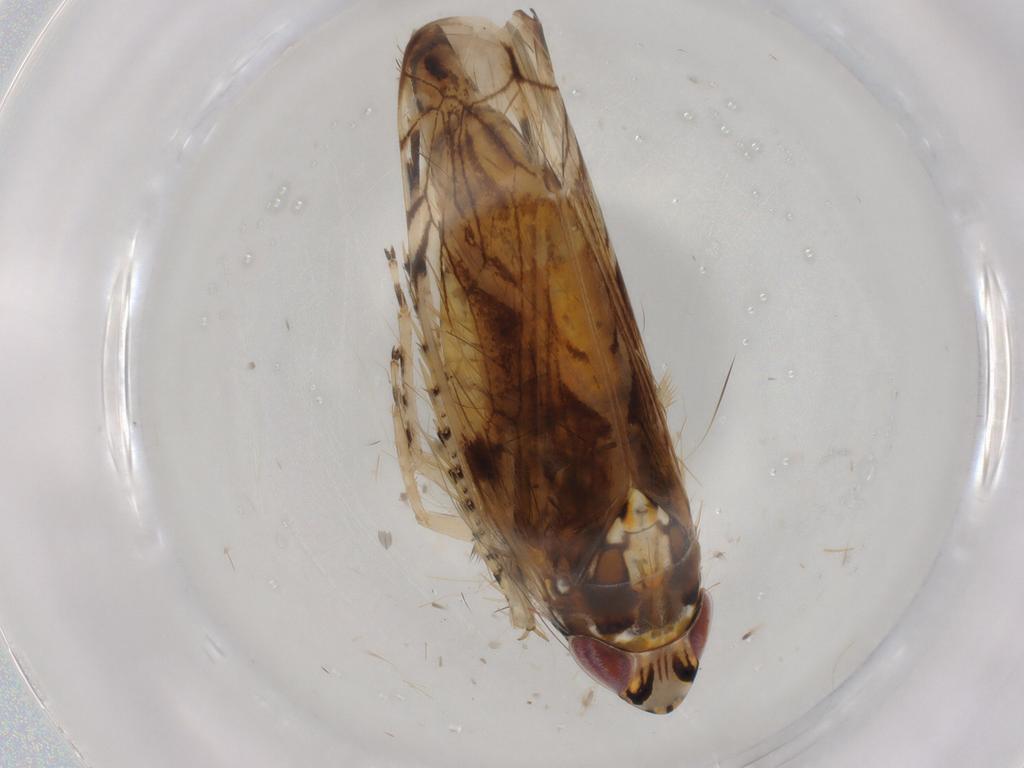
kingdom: Animalia
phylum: Arthropoda
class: Insecta
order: Hemiptera
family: Cicadellidae
